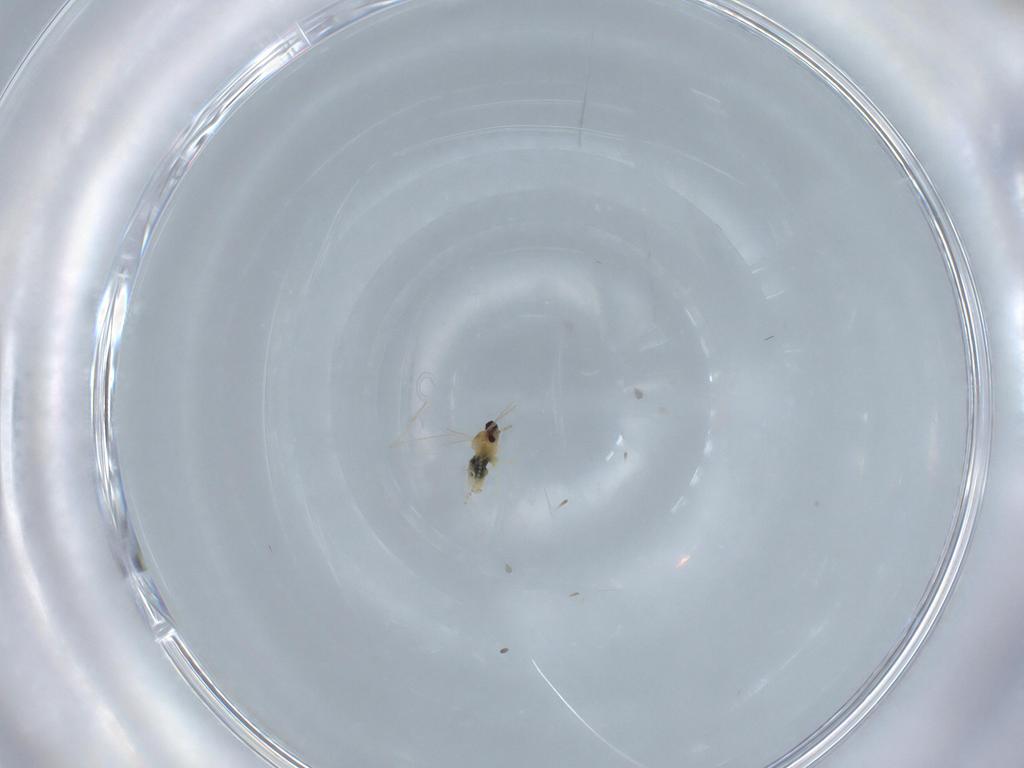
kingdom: Animalia
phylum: Arthropoda
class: Insecta
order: Diptera
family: Cecidomyiidae
